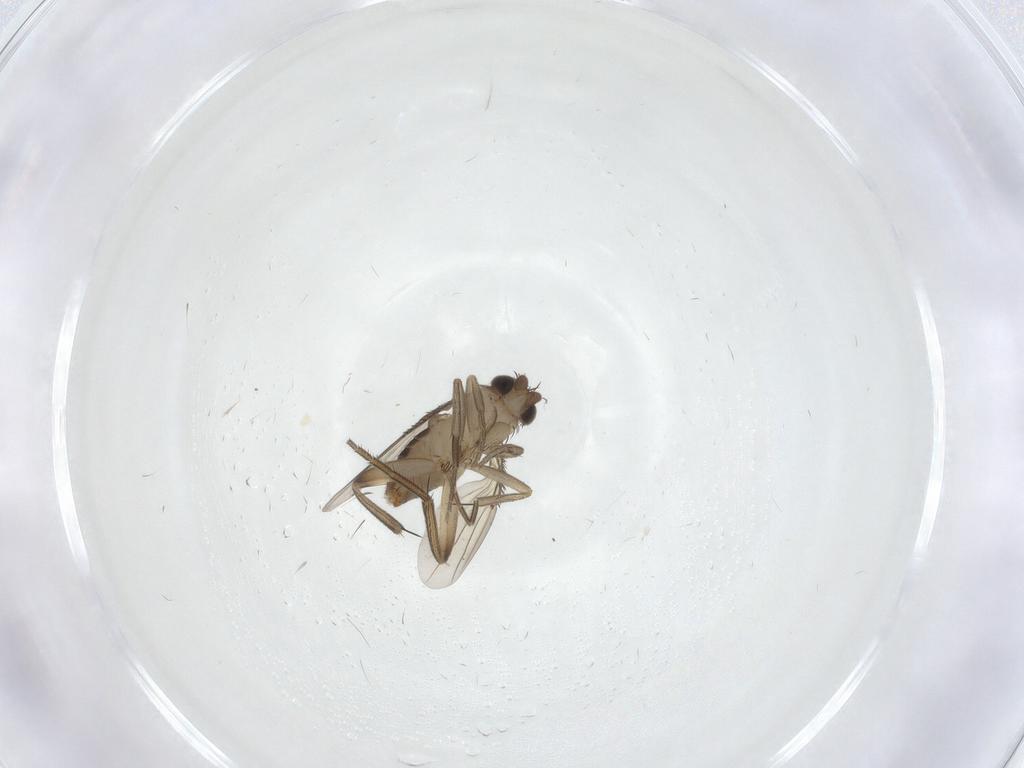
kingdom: Animalia
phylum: Arthropoda
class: Insecta
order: Diptera
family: Phoridae
